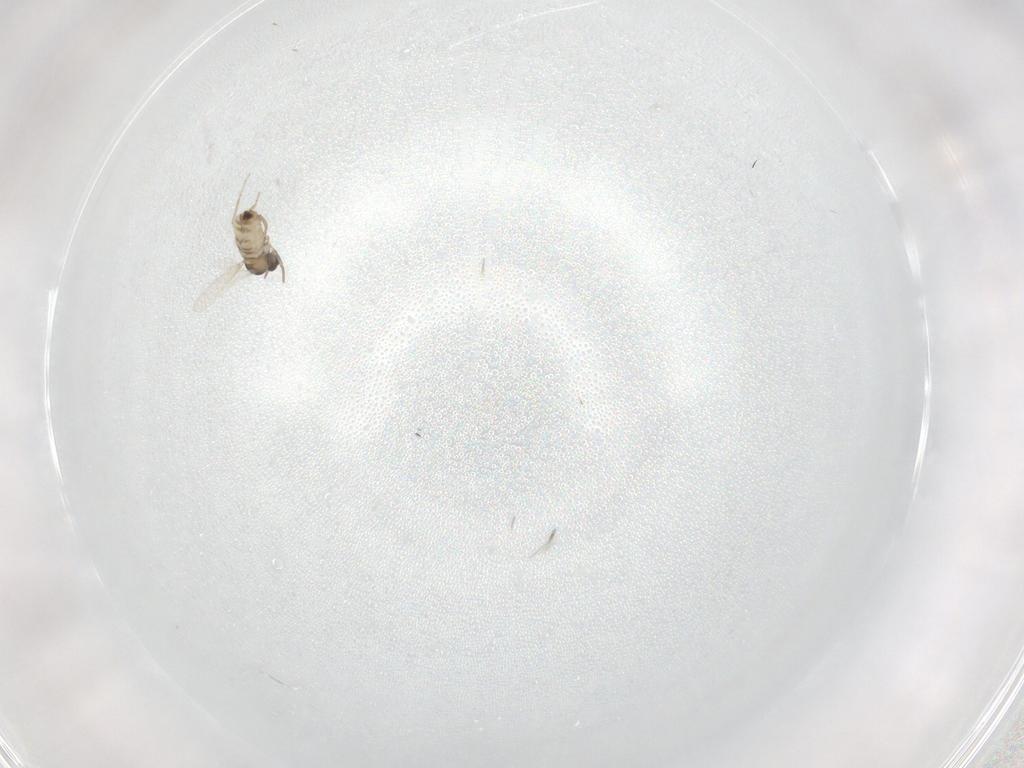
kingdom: Animalia
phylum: Arthropoda
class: Insecta
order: Diptera
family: Cecidomyiidae
